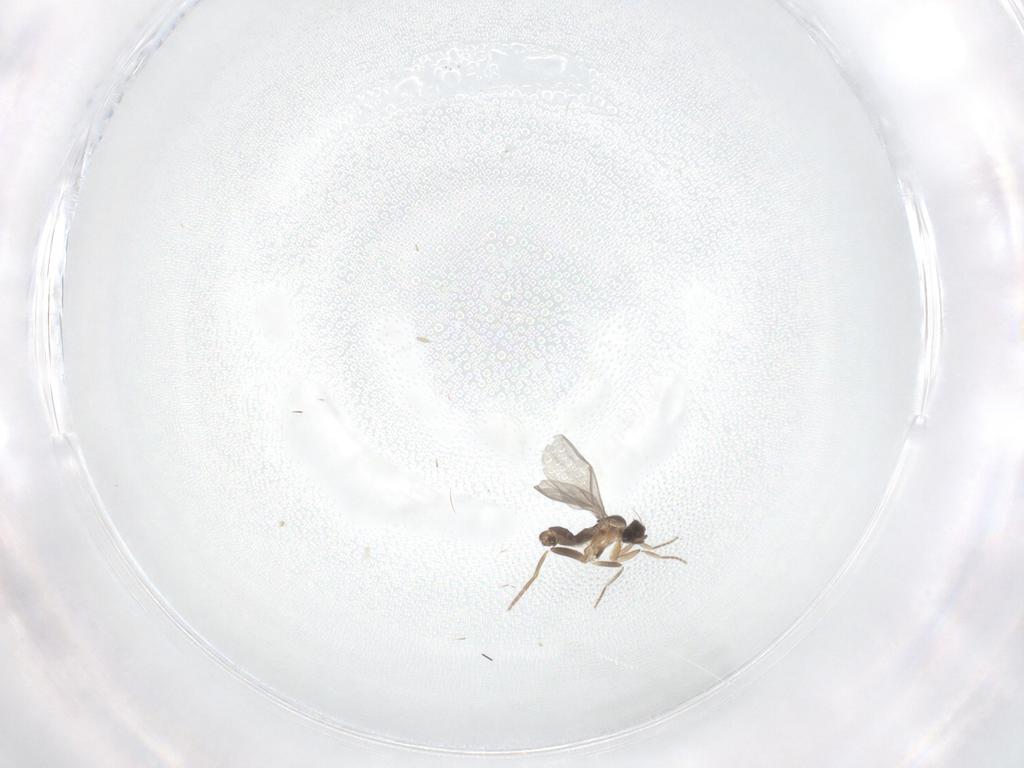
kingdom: Animalia
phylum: Arthropoda
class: Insecta
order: Diptera
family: Chironomidae
